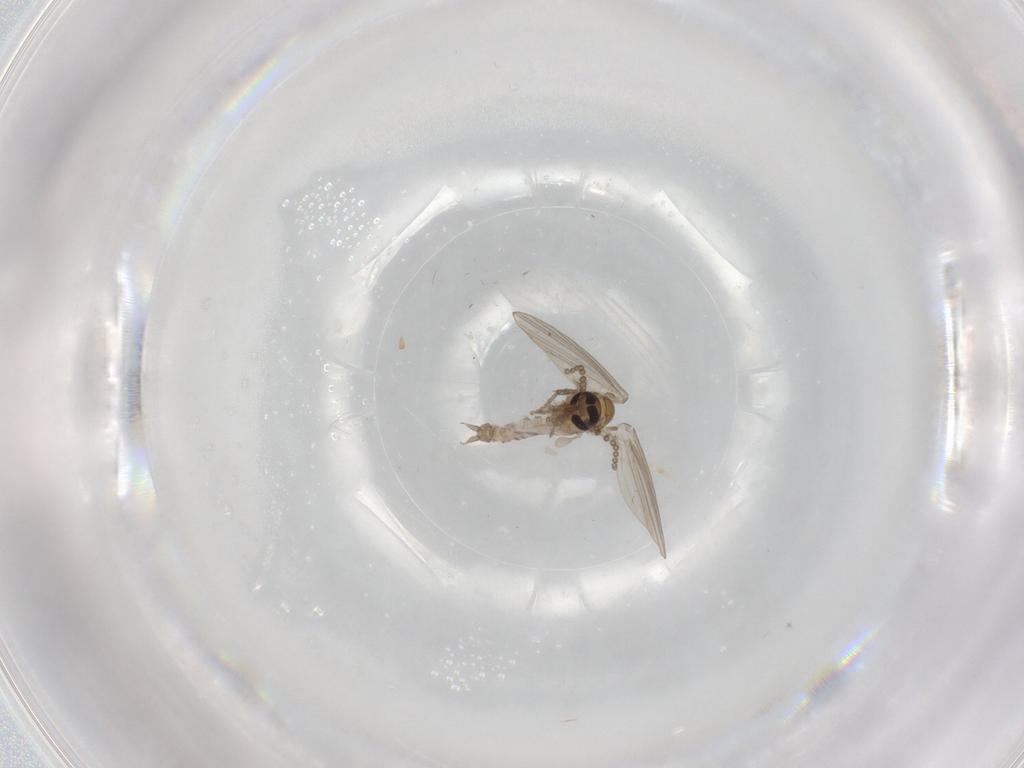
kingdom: Animalia
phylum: Arthropoda
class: Insecta
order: Diptera
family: Psychodidae
